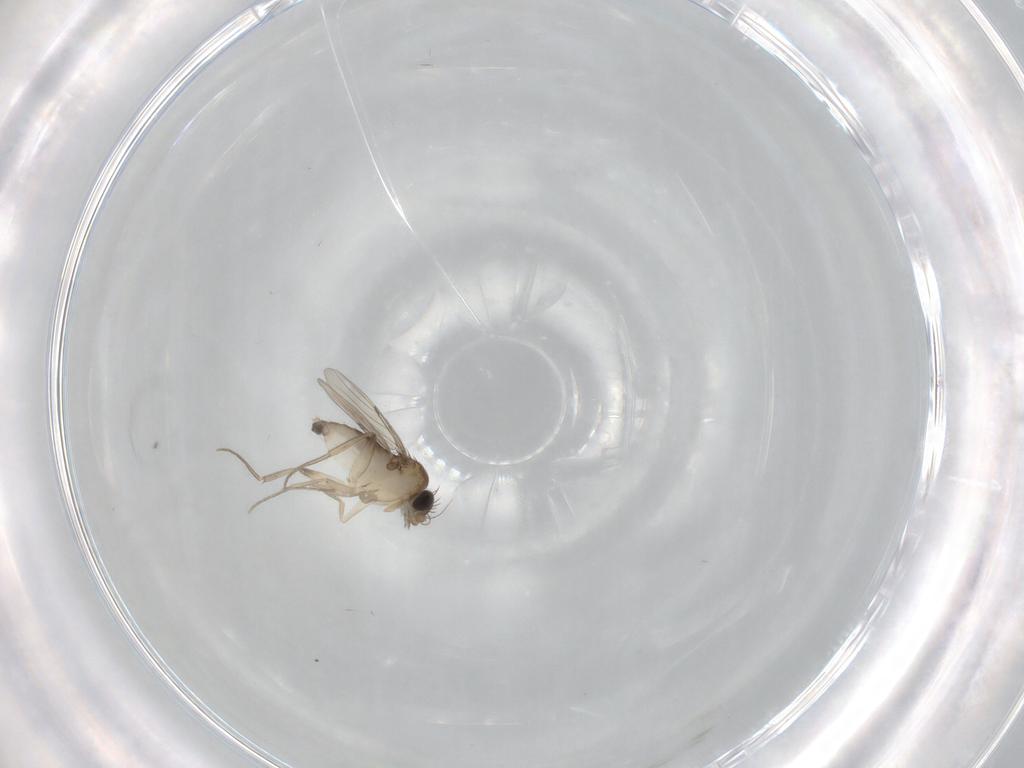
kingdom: Animalia
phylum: Arthropoda
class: Insecta
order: Diptera
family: Phoridae
